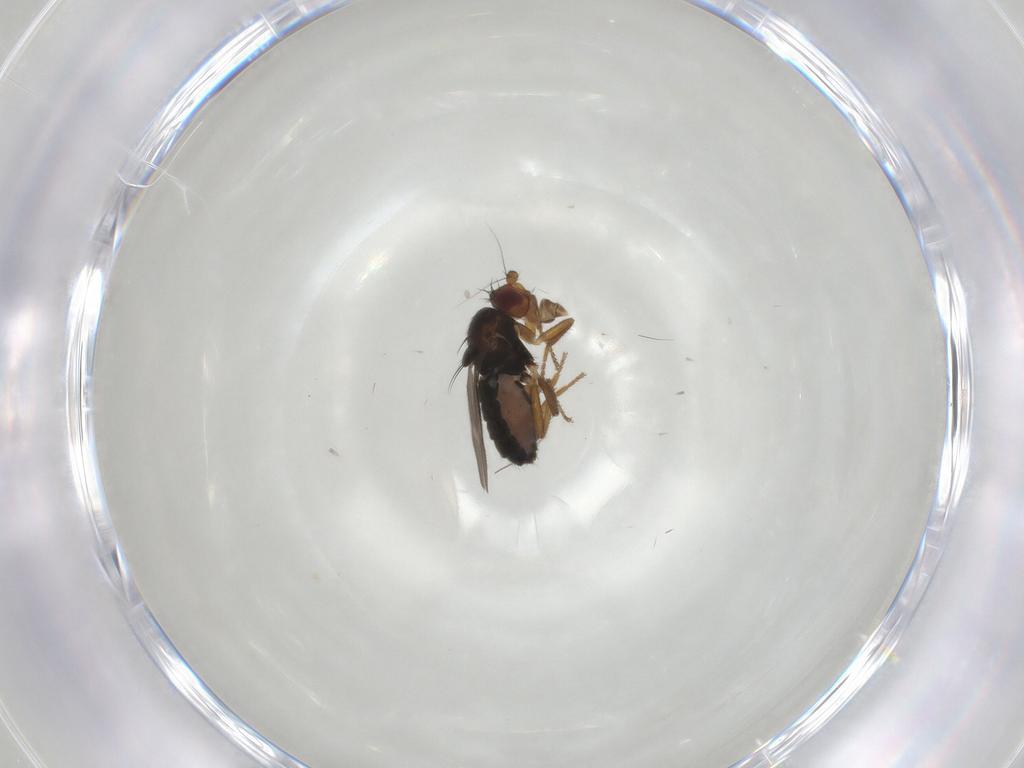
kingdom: Animalia
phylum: Arthropoda
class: Insecta
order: Diptera
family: Sphaeroceridae
